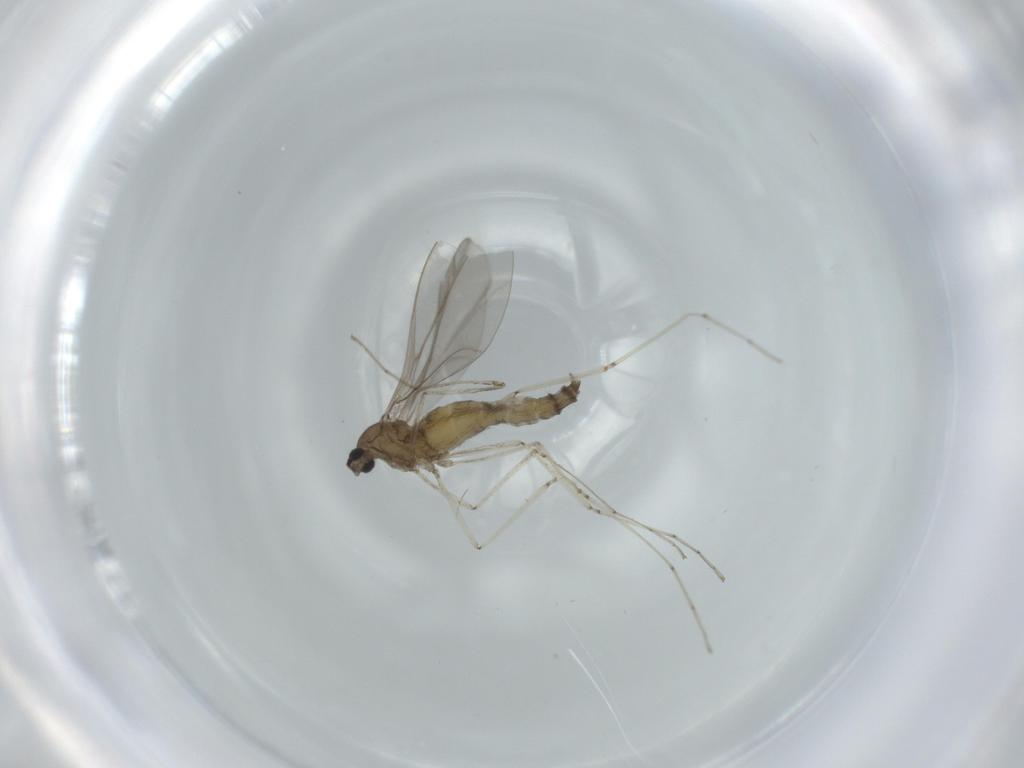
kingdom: Animalia
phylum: Arthropoda
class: Insecta
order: Diptera
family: Cecidomyiidae
